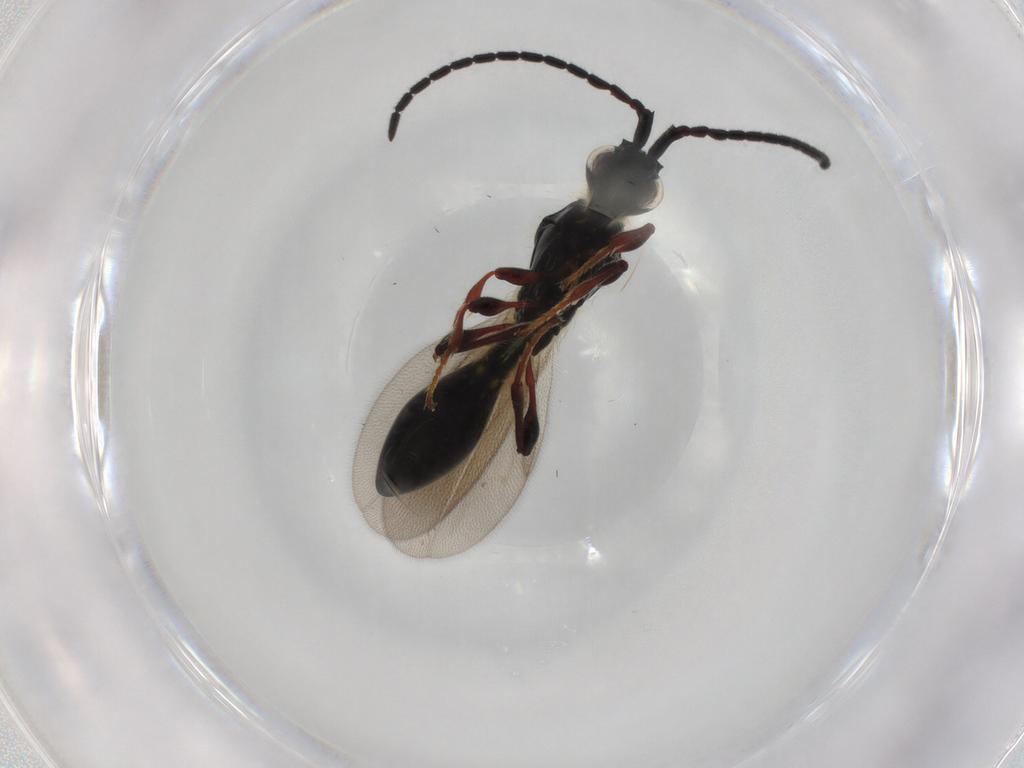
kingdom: Animalia
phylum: Arthropoda
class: Insecta
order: Hymenoptera
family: Diapriidae
